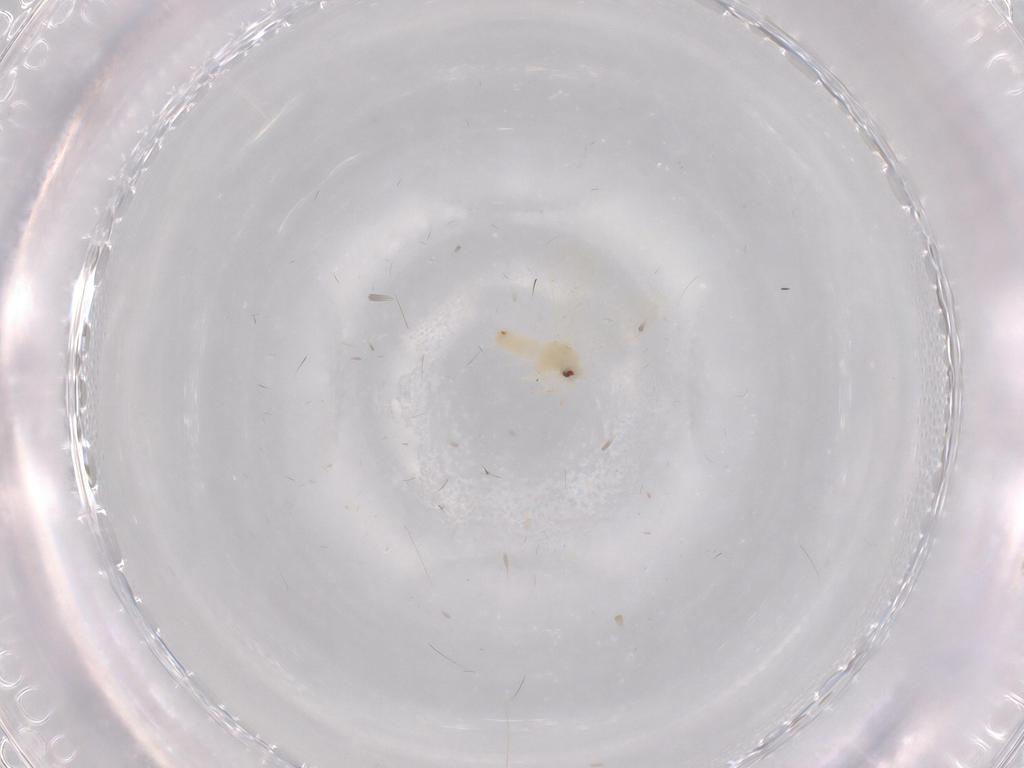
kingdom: Animalia
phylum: Arthropoda
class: Insecta
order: Hemiptera
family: Aleyrodidae
